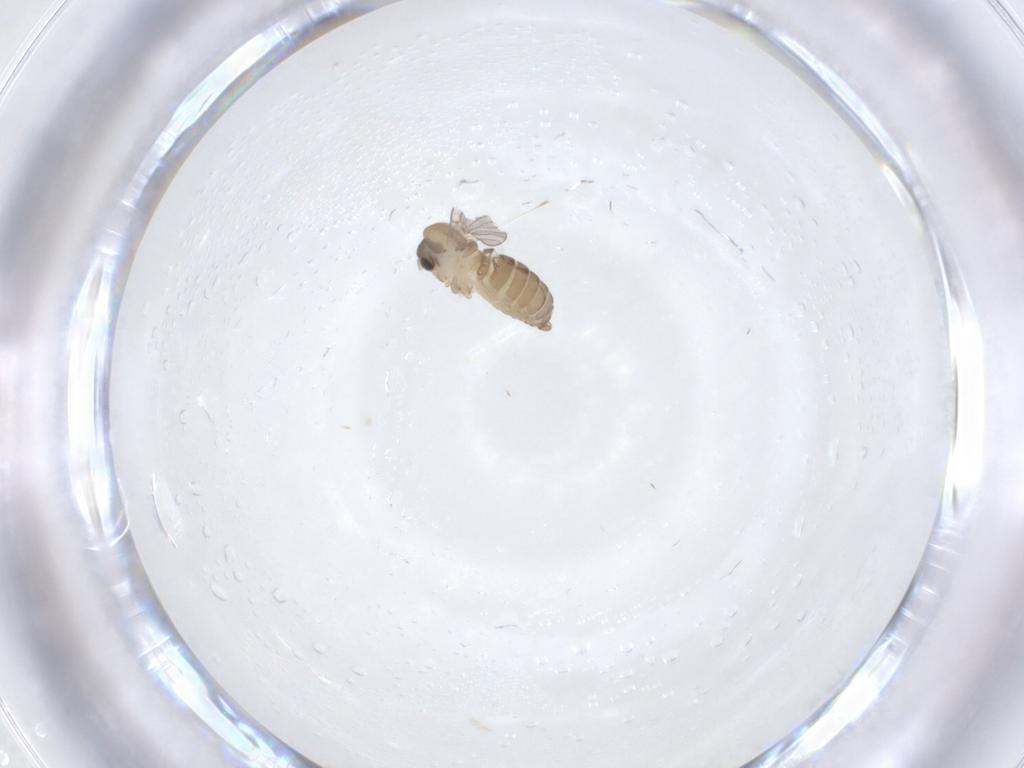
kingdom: Animalia
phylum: Arthropoda
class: Insecta
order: Diptera
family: Psychodidae
